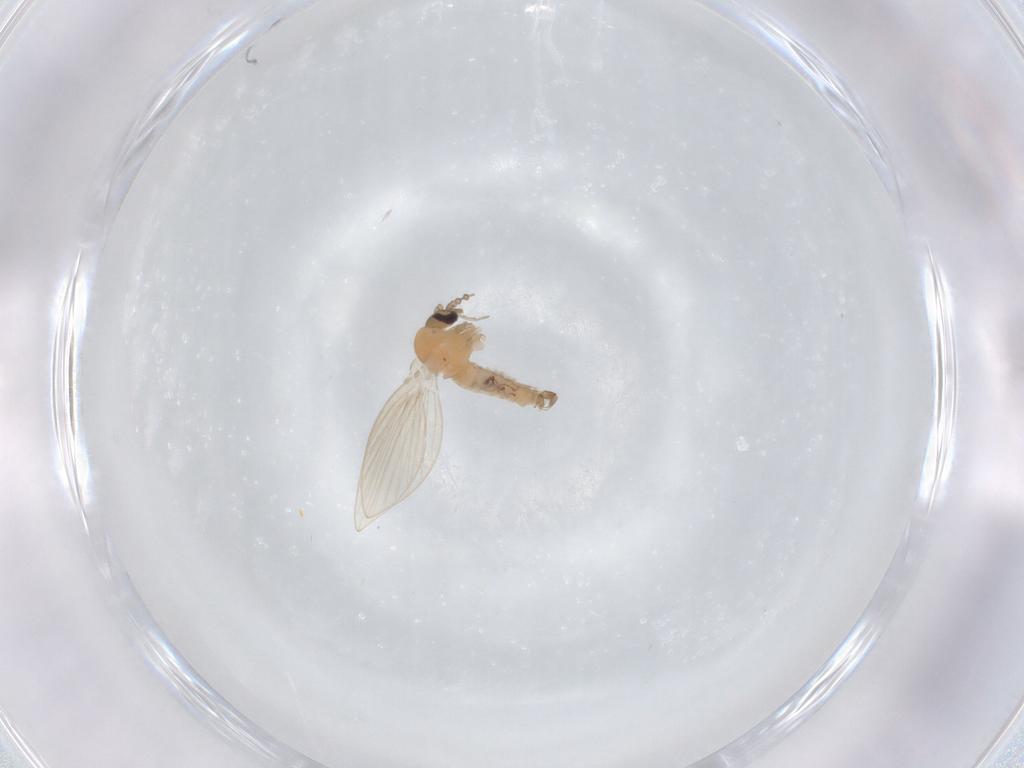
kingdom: Animalia
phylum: Arthropoda
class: Insecta
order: Diptera
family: Psychodidae
